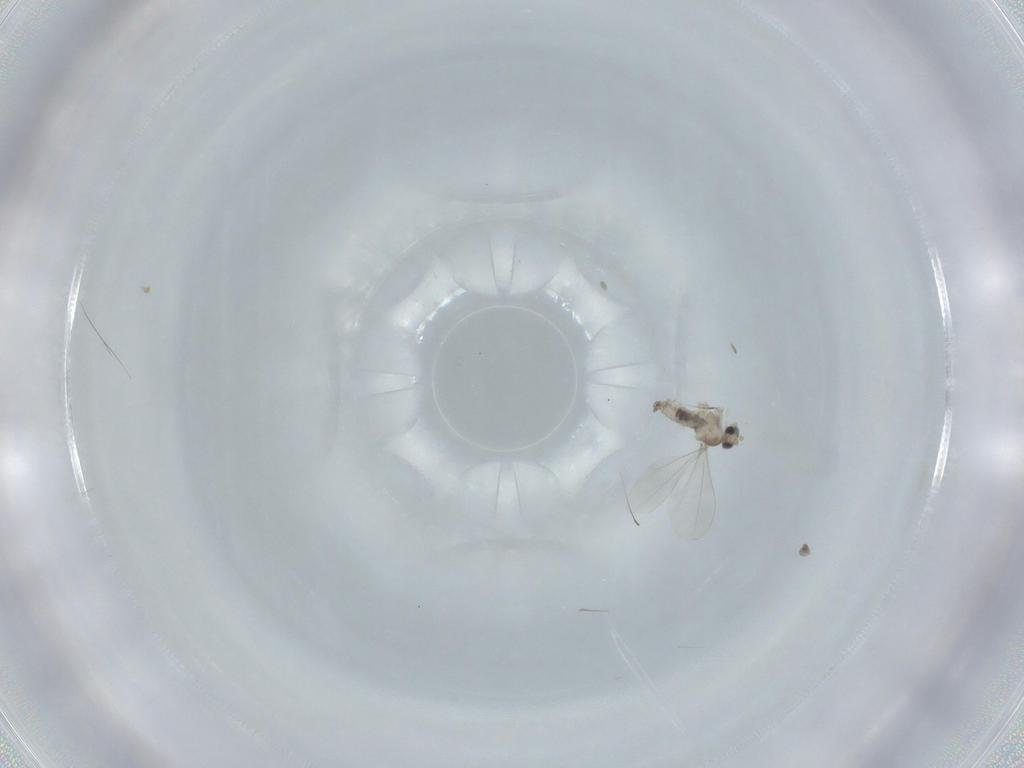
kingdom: Animalia
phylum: Arthropoda
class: Insecta
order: Diptera
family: Cecidomyiidae
